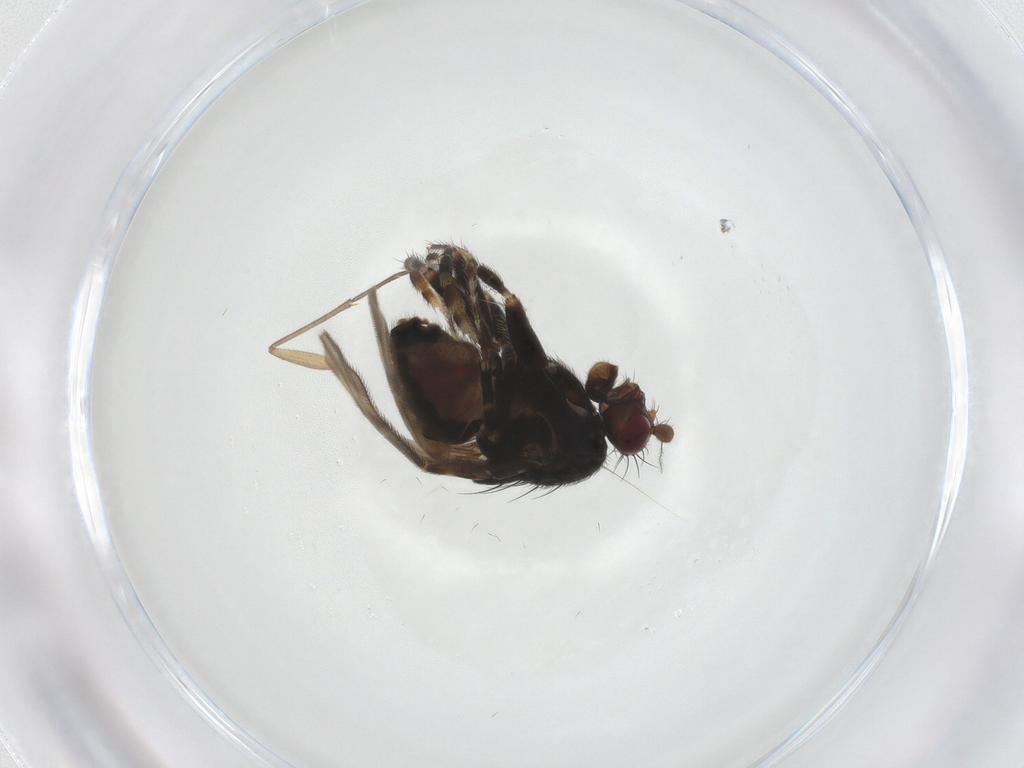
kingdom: Animalia
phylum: Arthropoda
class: Insecta
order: Diptera
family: Sphaeroceridae
